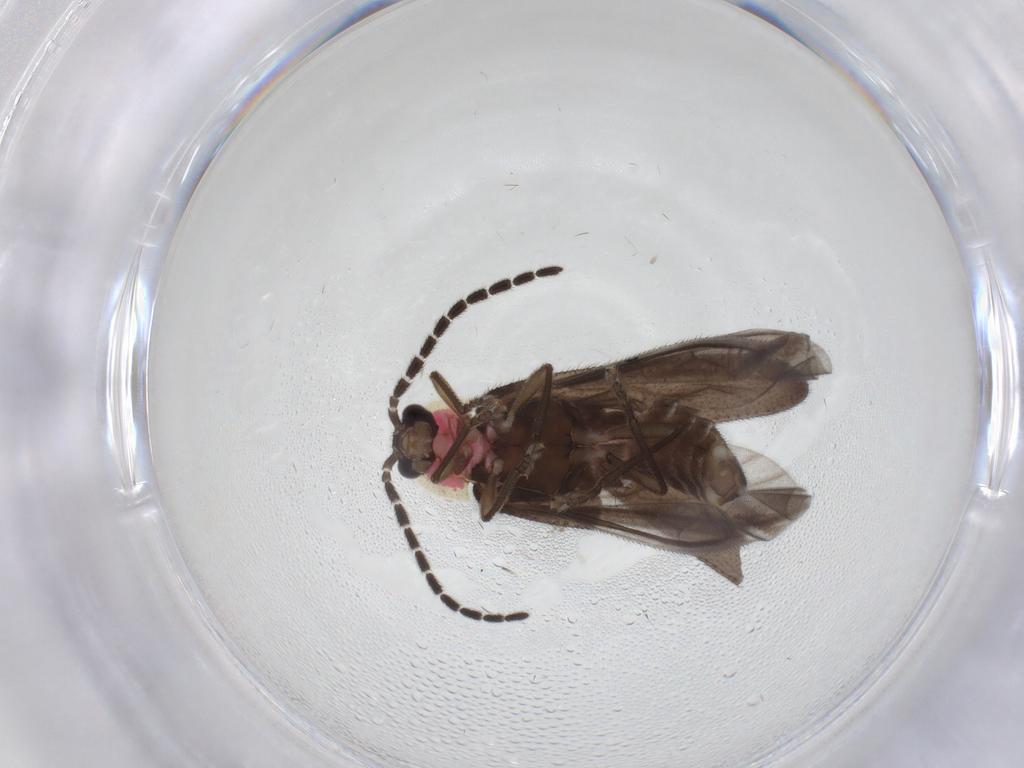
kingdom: Animalia
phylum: Arthropoda
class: Insecta
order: Coleoptera
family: Lampyridae
